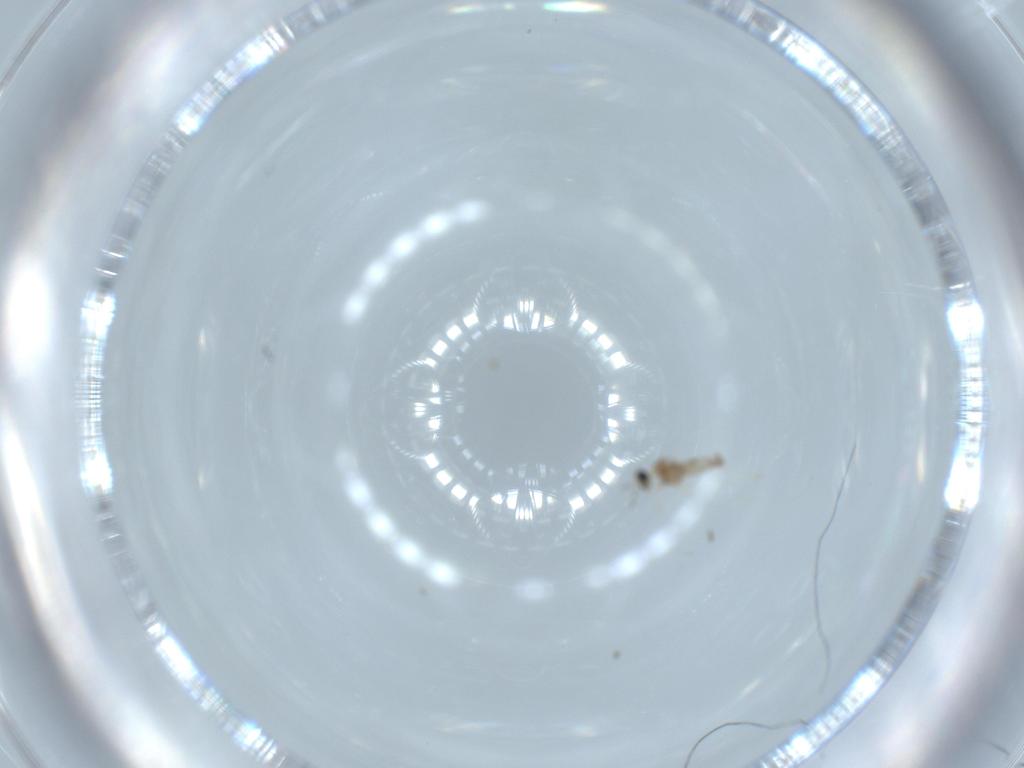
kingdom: Animalia
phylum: Arthropoda
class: Insecta
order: Diptera
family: Cecidomyiidae
